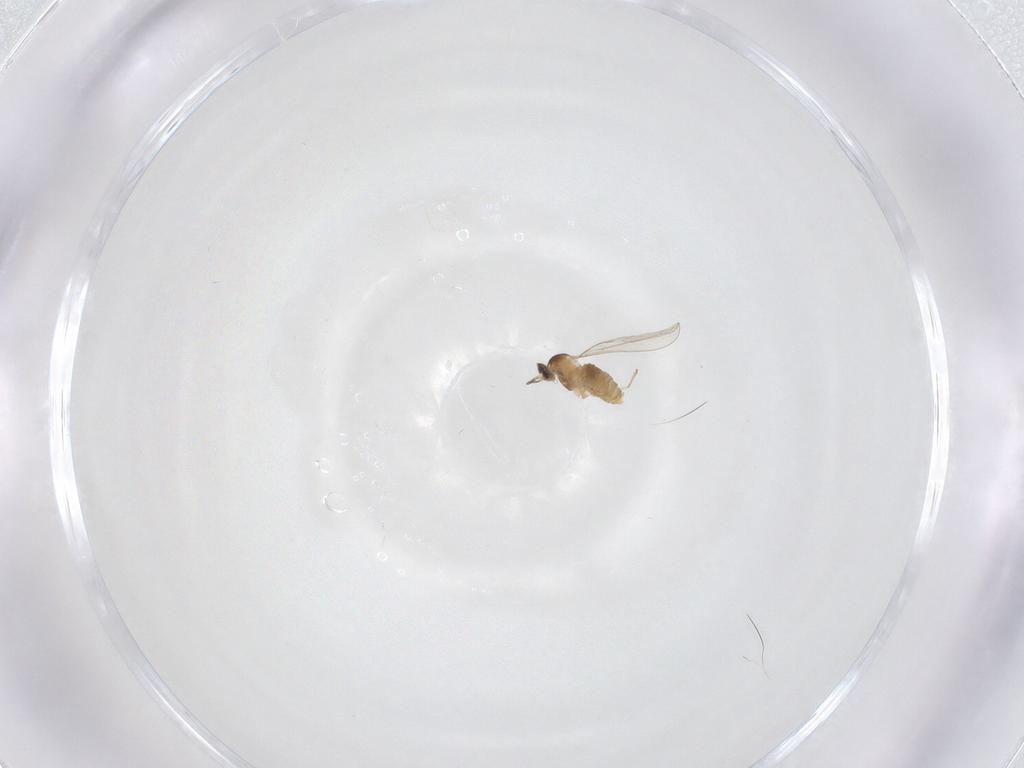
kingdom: Animalia
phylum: Arthropoda
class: Insecta
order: Diptera
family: Cecidomyiidae
